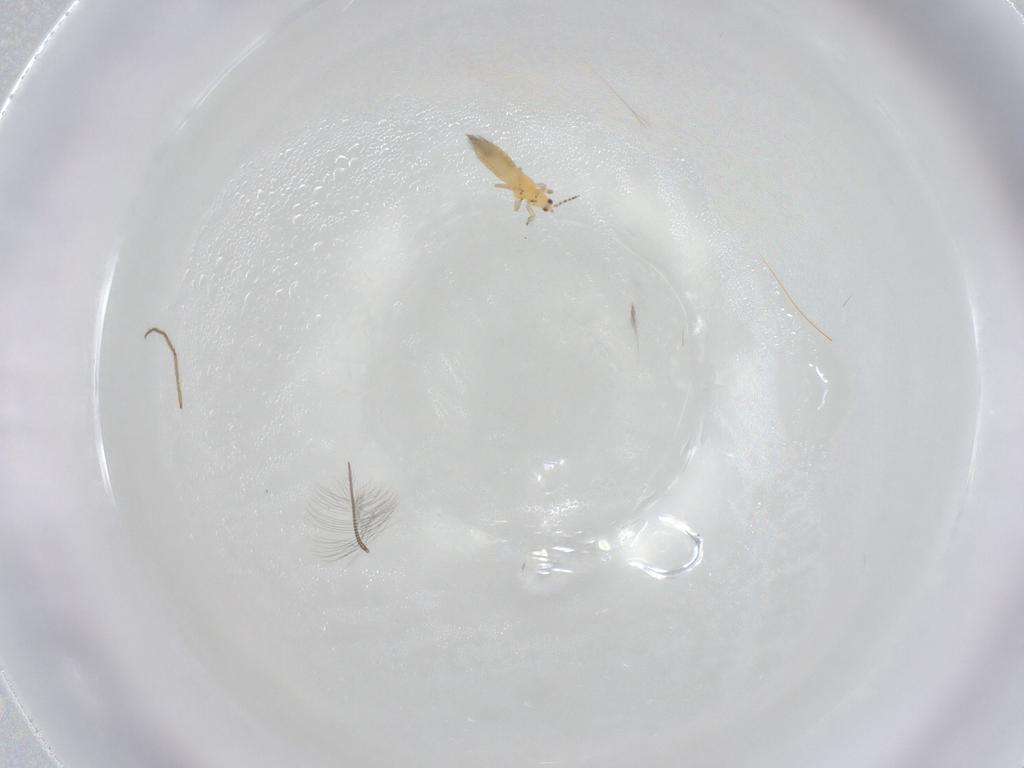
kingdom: Animalia
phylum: Arthropoda
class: Insecta
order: Thysanoptera
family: Thripidae
